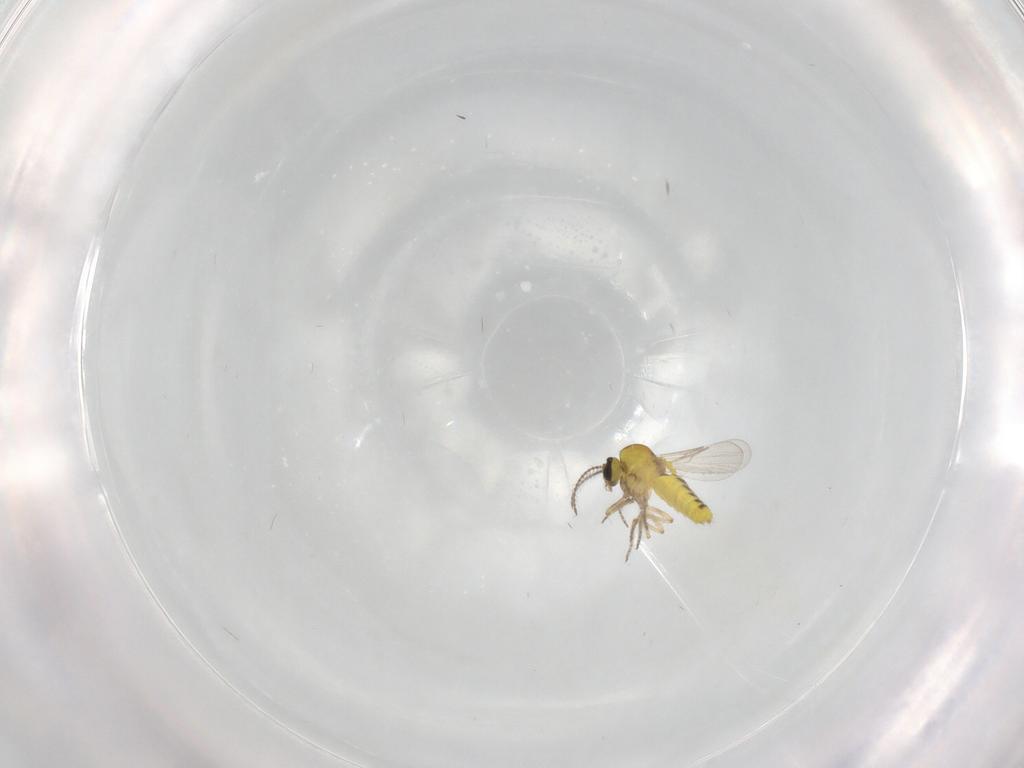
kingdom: Animalia
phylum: Arthropoda
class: Insecta
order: Diptera
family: Ceratopogonidae
